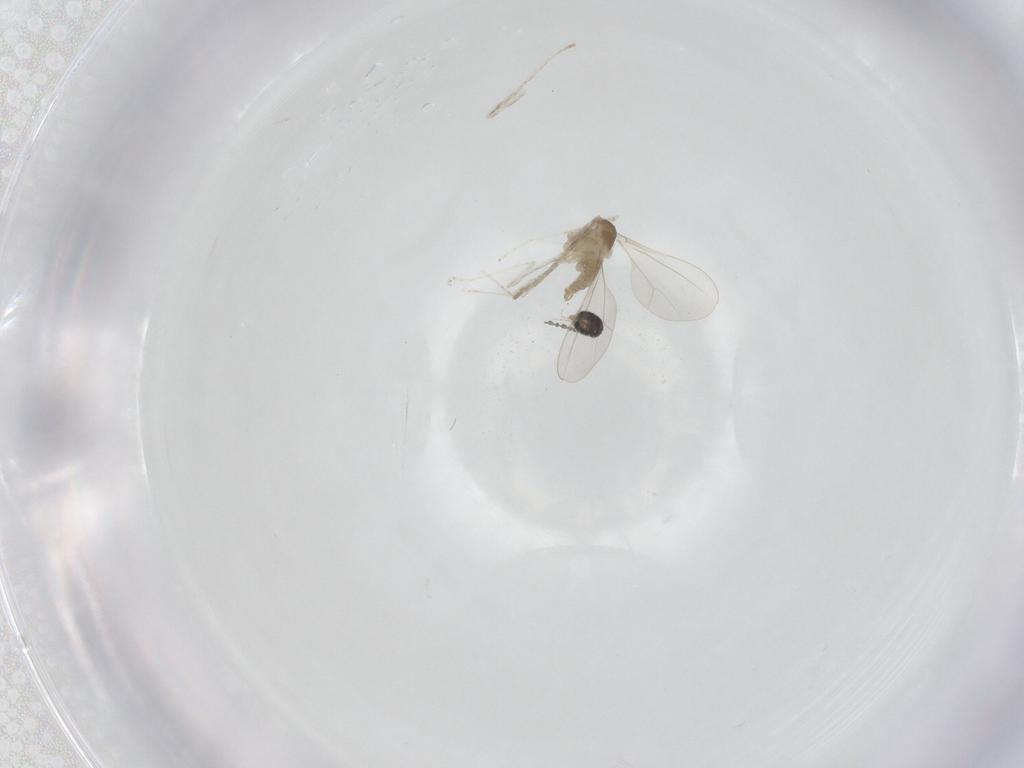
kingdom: Animalia
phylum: Arthropoda
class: Insecta
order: Diptera
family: Cecidomyiidae
